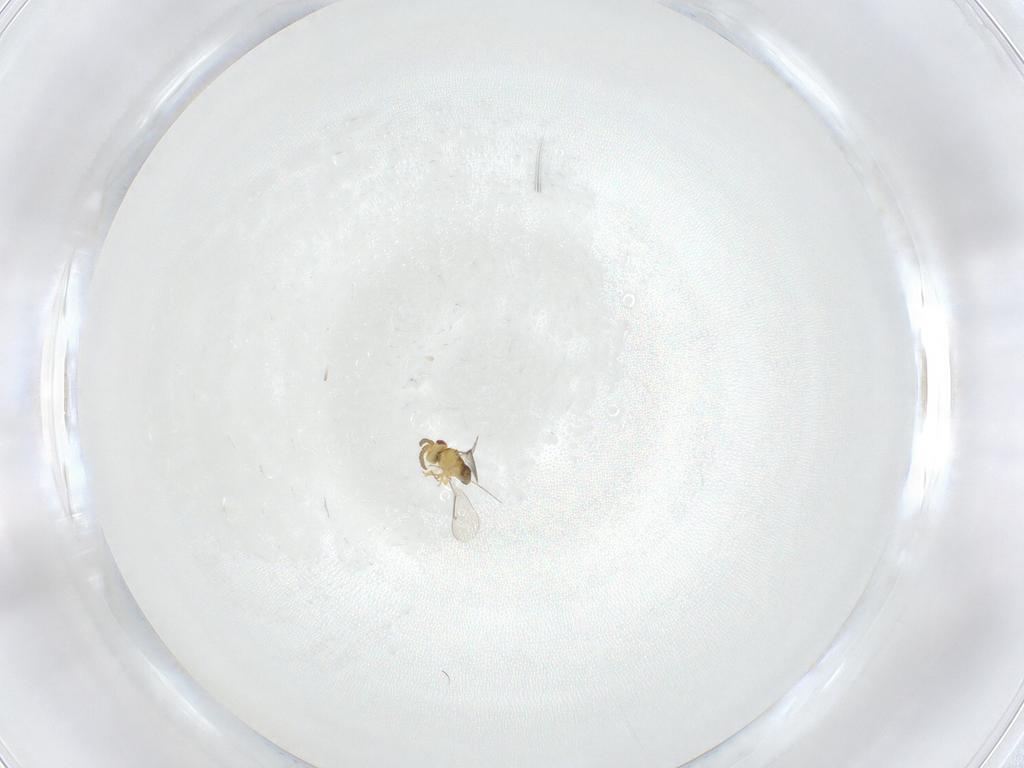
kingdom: Animalia
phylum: Arthropoda
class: Insecta
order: Hymenoptera
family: Aphelinidae
